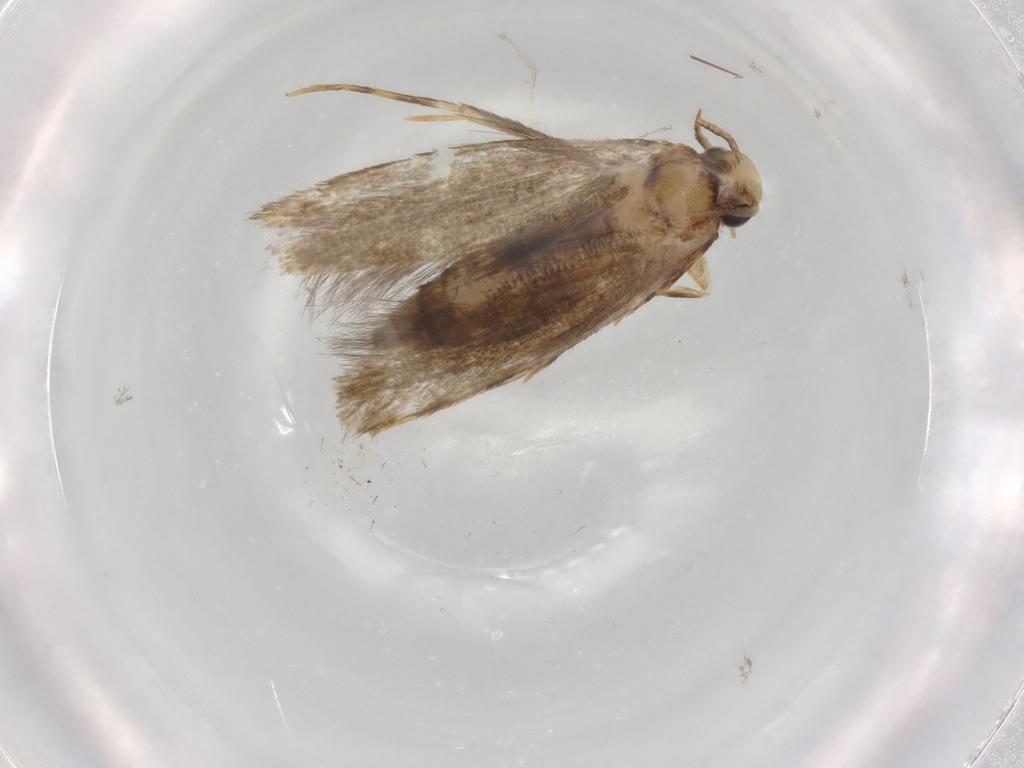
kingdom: Animalia
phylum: Arthropoda
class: Insecta
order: Lepidoptera
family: Tineidae
